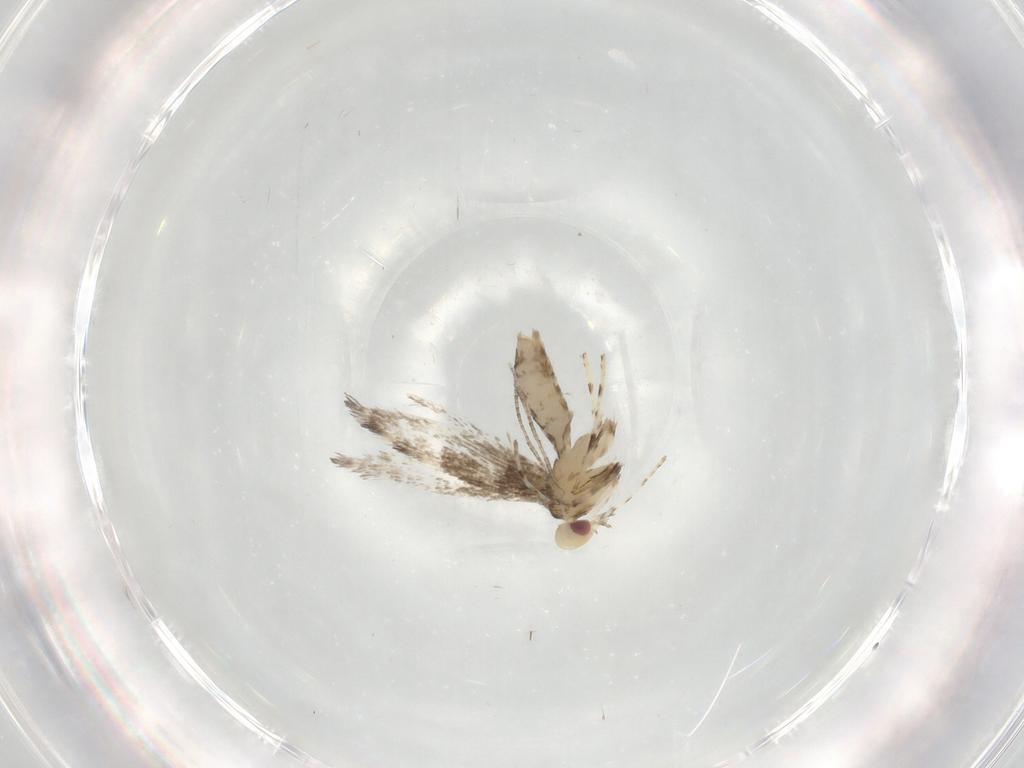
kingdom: Animalia
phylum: Arthropoda
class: Insecta
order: Lepidoptera
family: Gracillariidae
